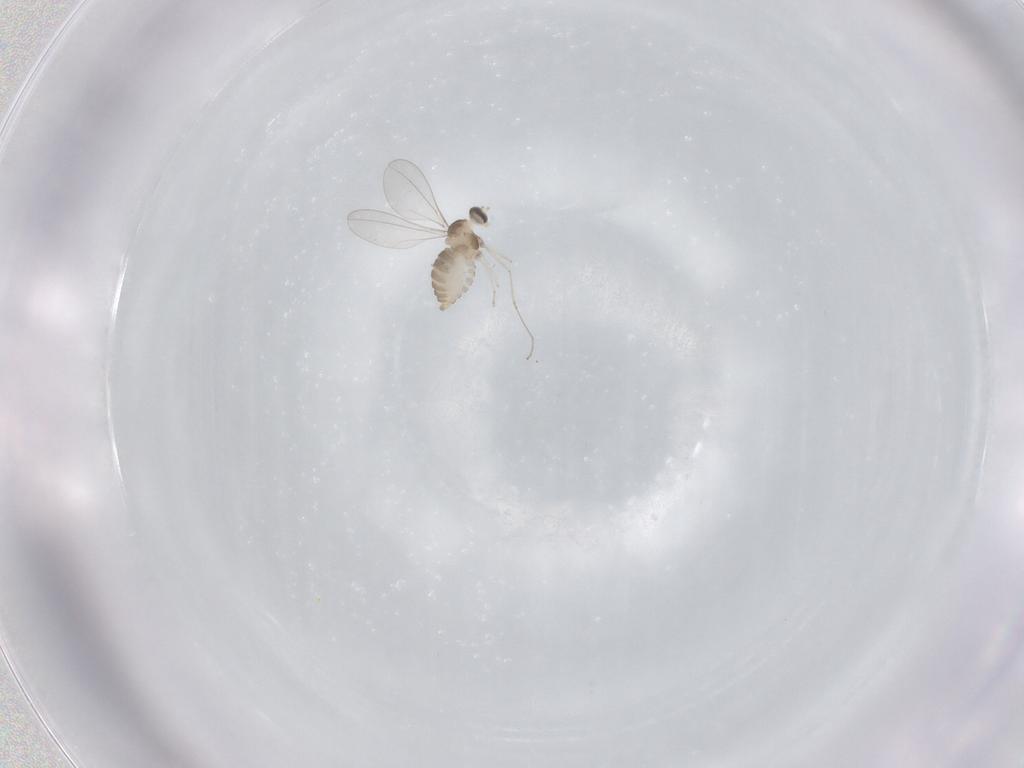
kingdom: Animalia
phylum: Arthropoda
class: Insecta
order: Diptera
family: Cecidomyiidae
